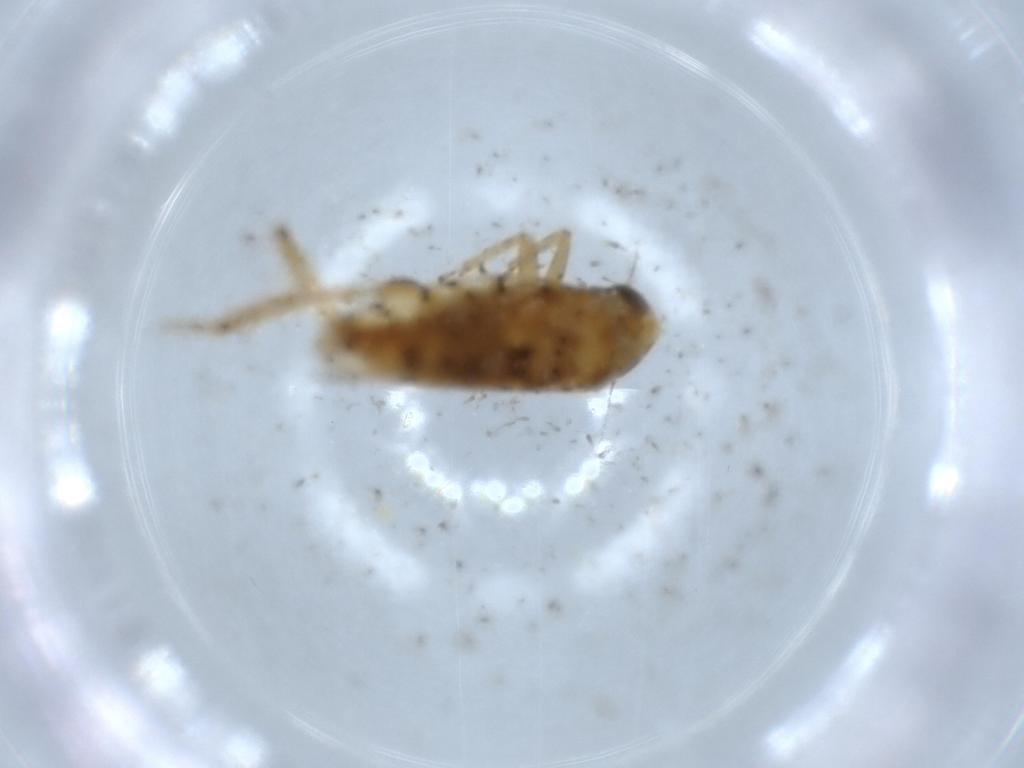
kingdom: Animalia
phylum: Arthropoda
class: Insecta
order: Hemiptera
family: Cicadellidae
